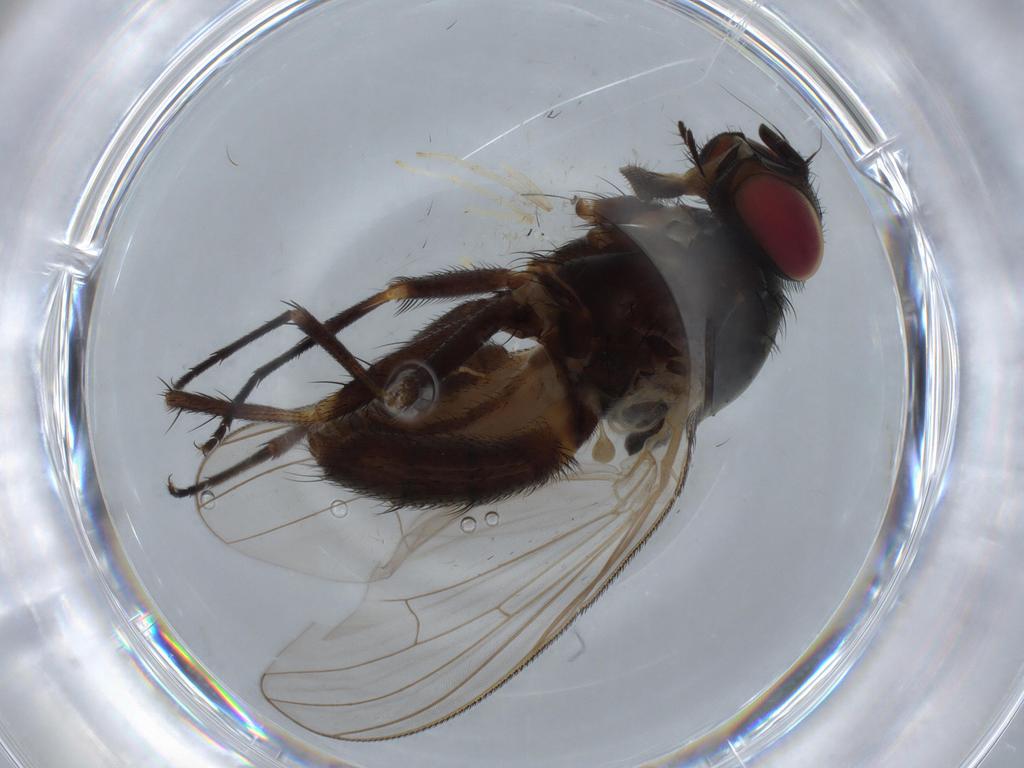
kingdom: Animalia
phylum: Arthropoda
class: Insecta
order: Diptera
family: Fannia
